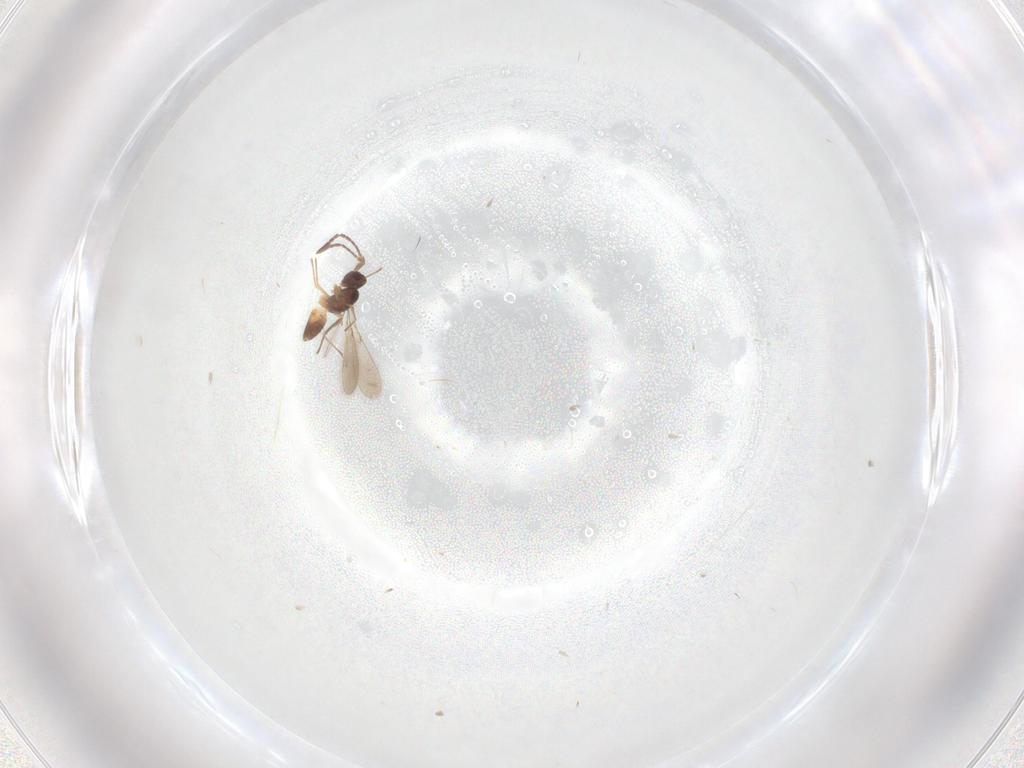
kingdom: Animalia
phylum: Arthropoda
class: Insecta
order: Hymenoptera
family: Mymaridae
